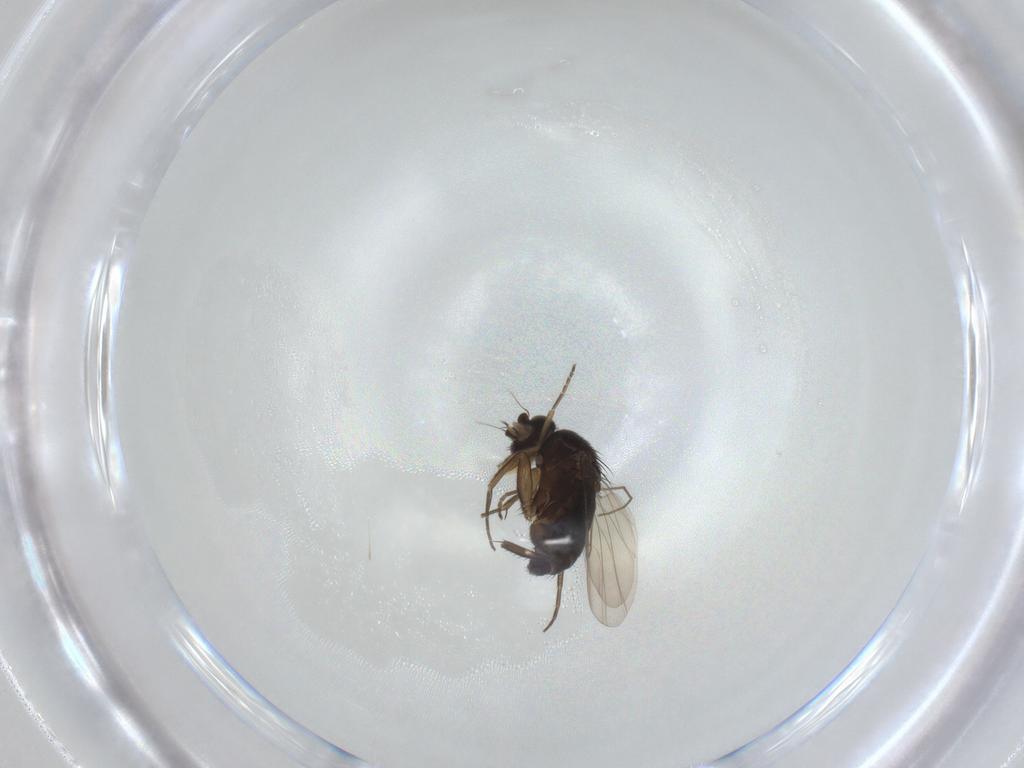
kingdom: Animalia
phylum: Arthropoda
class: Insecta
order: Diptera
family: Phoridae
